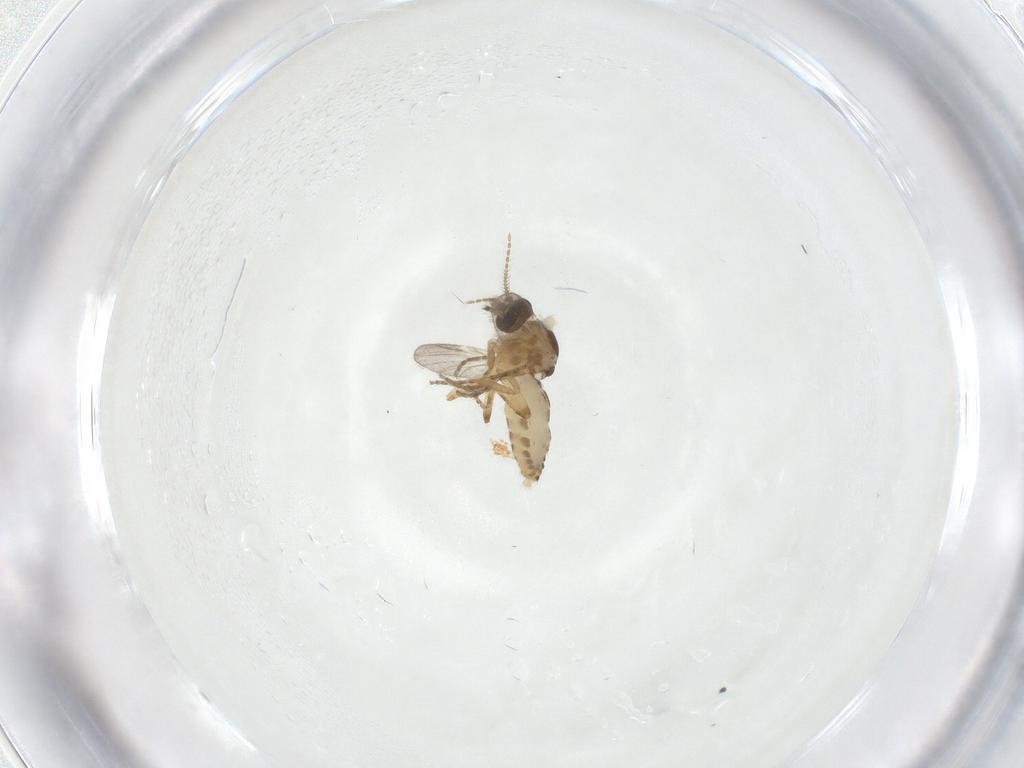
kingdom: Animalia
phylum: Arthropoda
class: Insecta
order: Diptera
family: Ceratopogonidae
